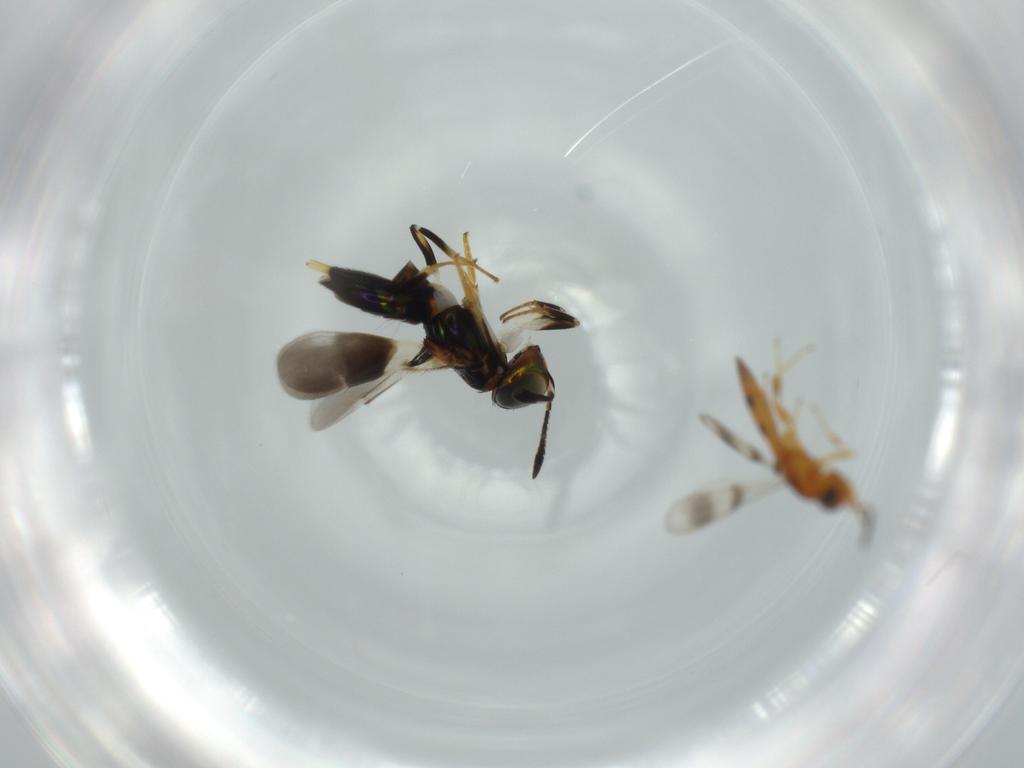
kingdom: Animalia
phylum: Arthropoda
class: Insecta
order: Hymenoptera
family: Scelionidae
